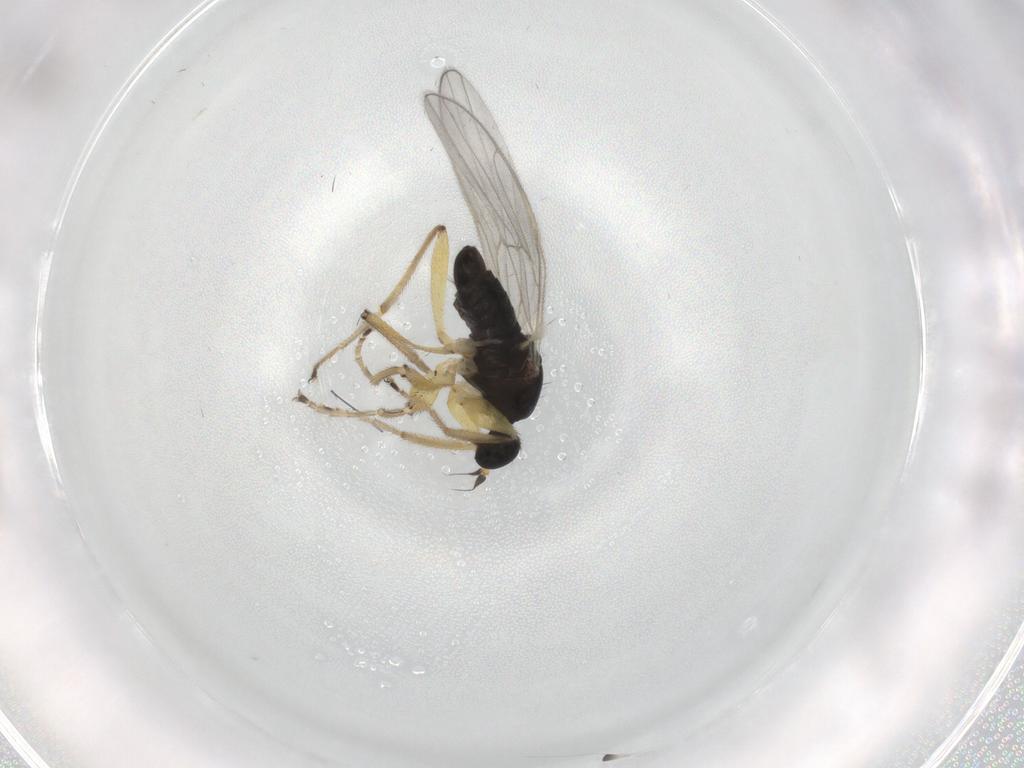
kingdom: Animalia
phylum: Arthropoda
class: Insecta
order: Diptera
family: Hybotidae
